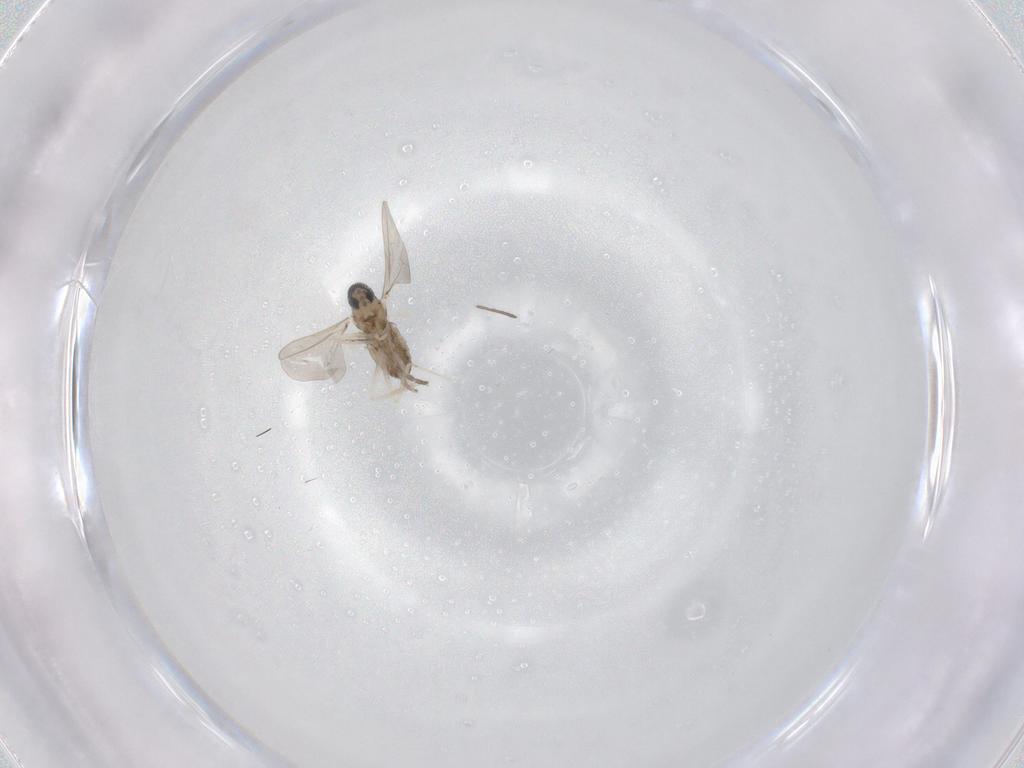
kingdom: Animalia
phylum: Arthropoda
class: Insecta
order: Diptera
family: Cecidomyiidae
